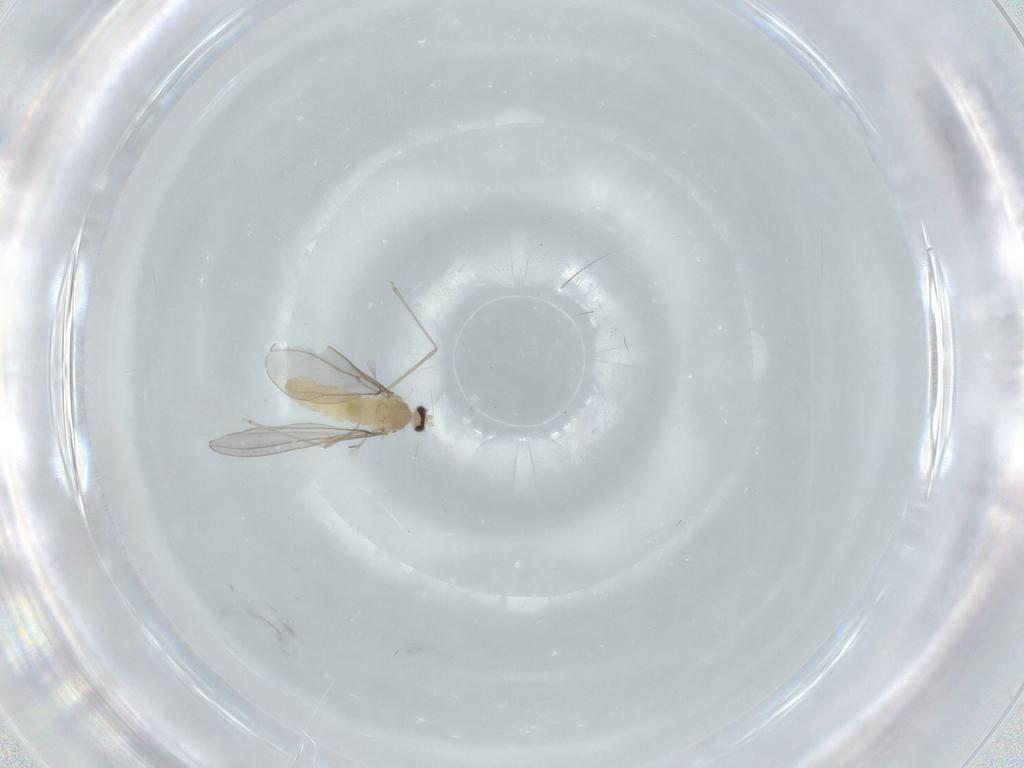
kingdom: Animalia
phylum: Arthropoda
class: Insecta
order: Diptera
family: Cecidomyiidae
